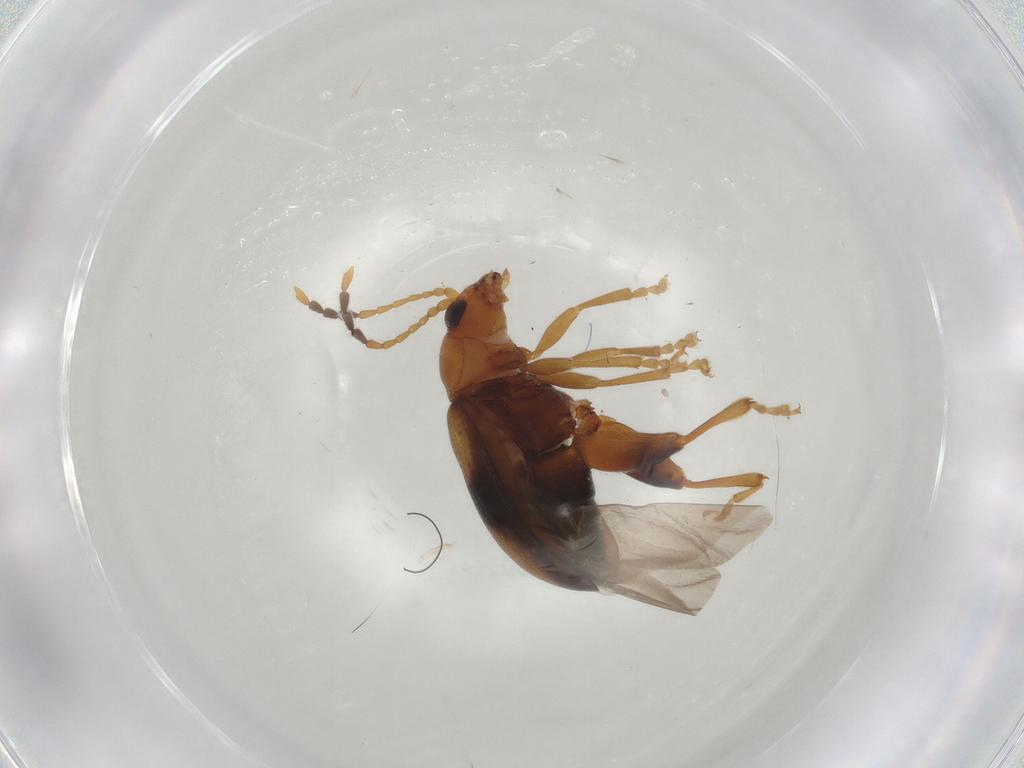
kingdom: Animalia
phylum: Arthropoda
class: Insecta
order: Coleoptera
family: Chrysomelidae
